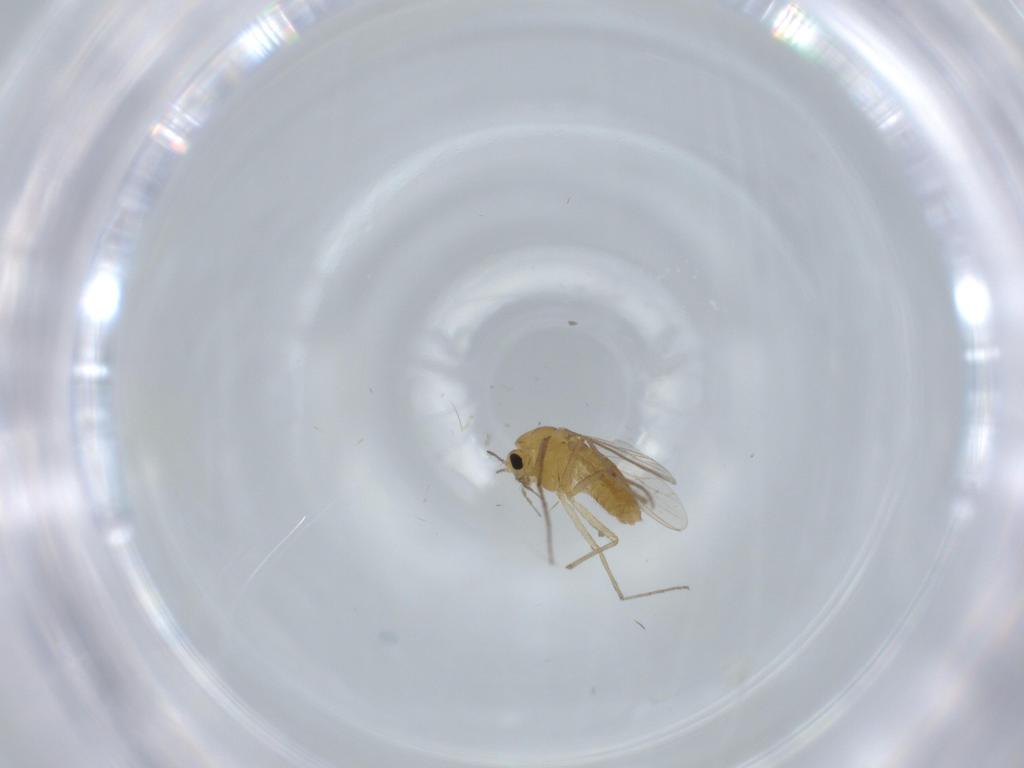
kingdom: Animalia
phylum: Arthropoda
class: Insecta
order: Diptera
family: Chironomidae
